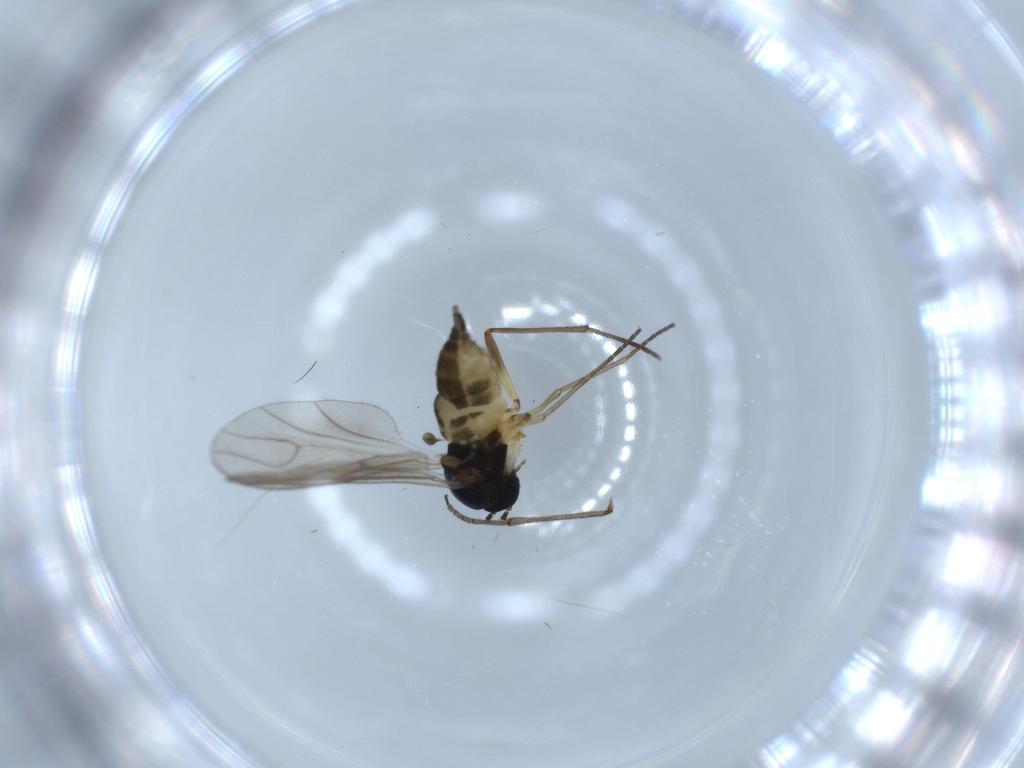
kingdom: Animalia
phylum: Arthropoda
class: Insecta
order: Diptera
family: Sciaridae
